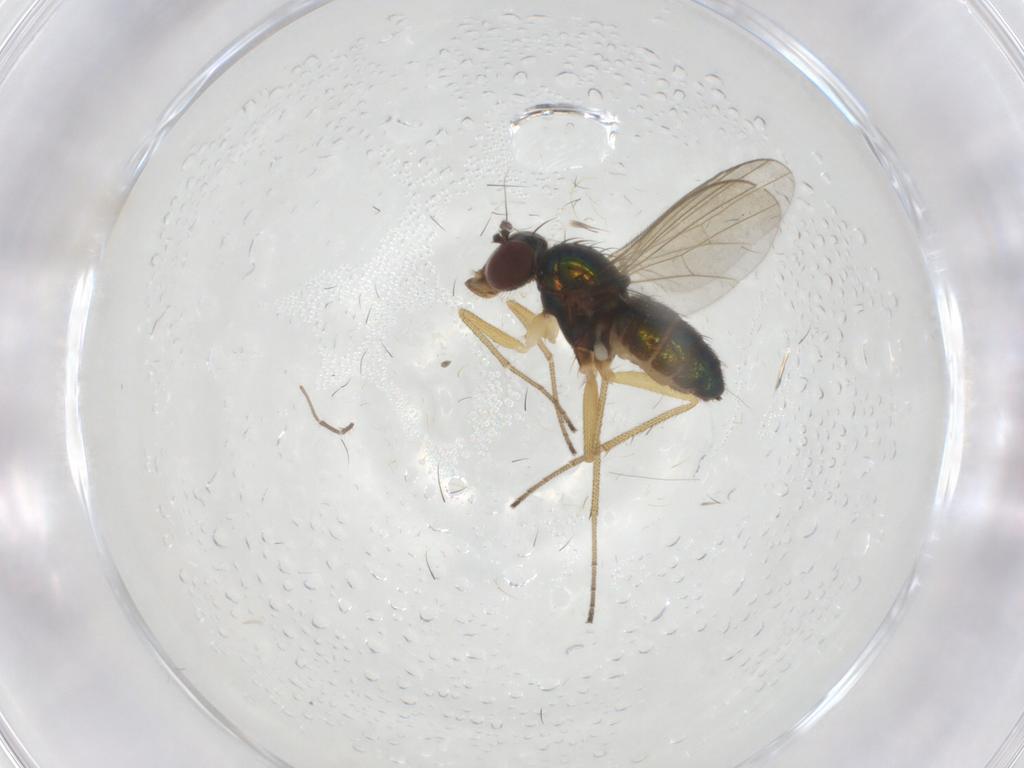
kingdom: Animalia
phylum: Arthropoda
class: Insecta
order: Diptera
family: Dolichopodidae
